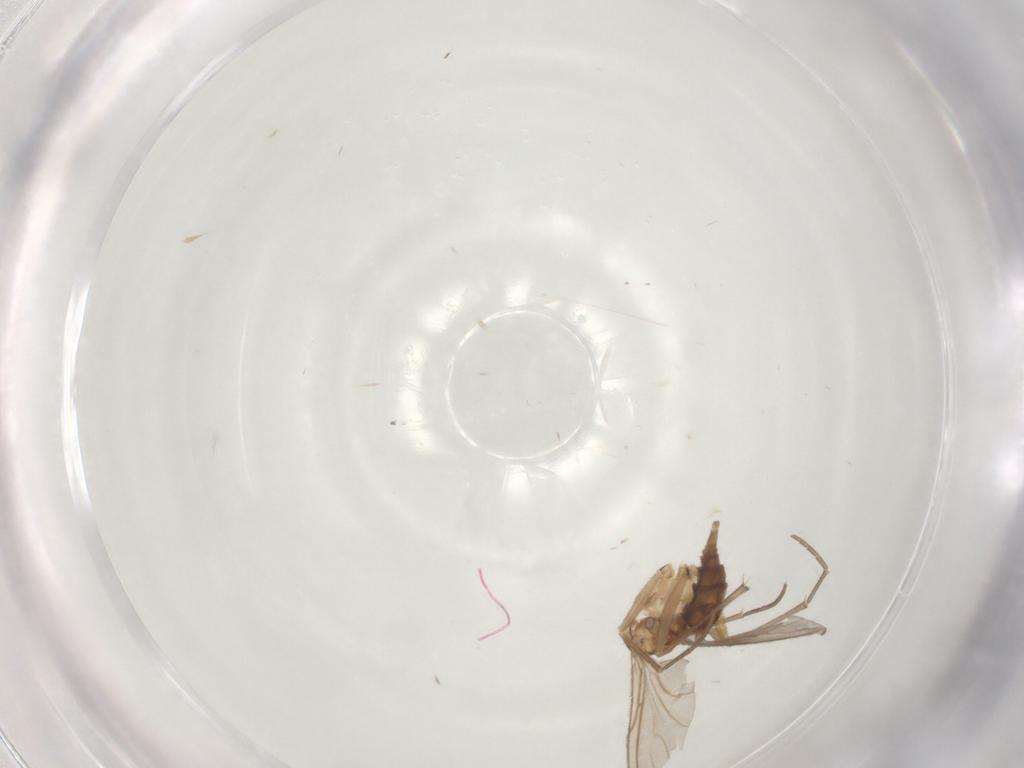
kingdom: Animalia
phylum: Arthropoda
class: Insecta
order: Diptera
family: Sciaridae
